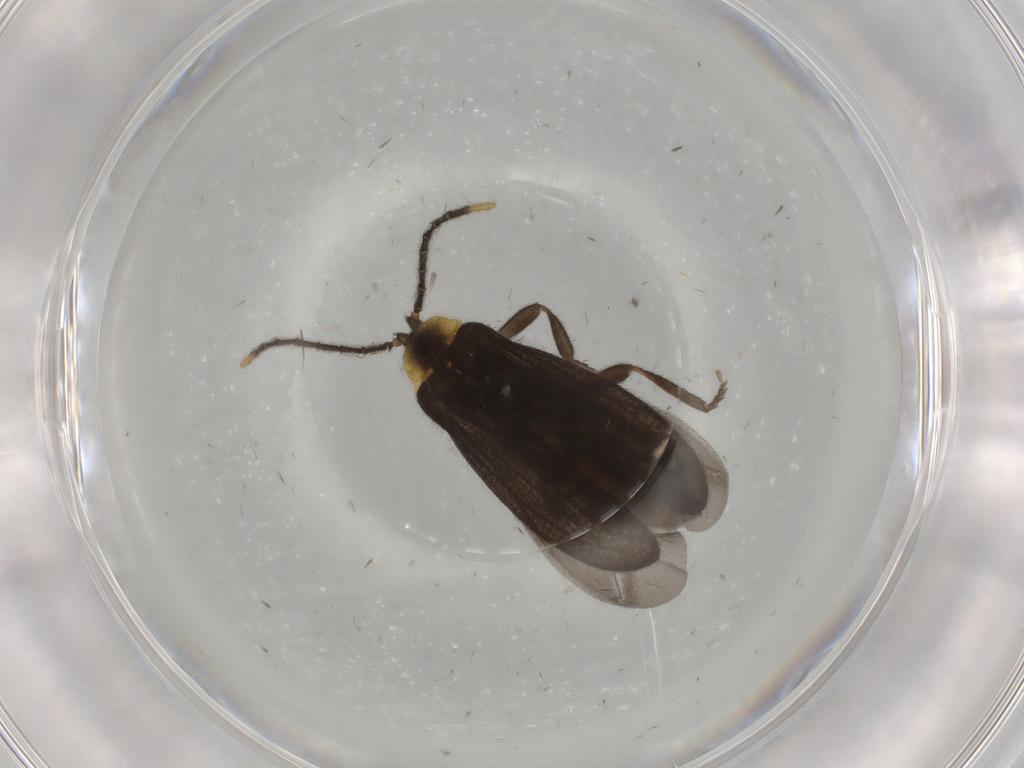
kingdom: Animalia
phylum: Arthropoda
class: Insecta
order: Coleoptera
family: Lycidae
